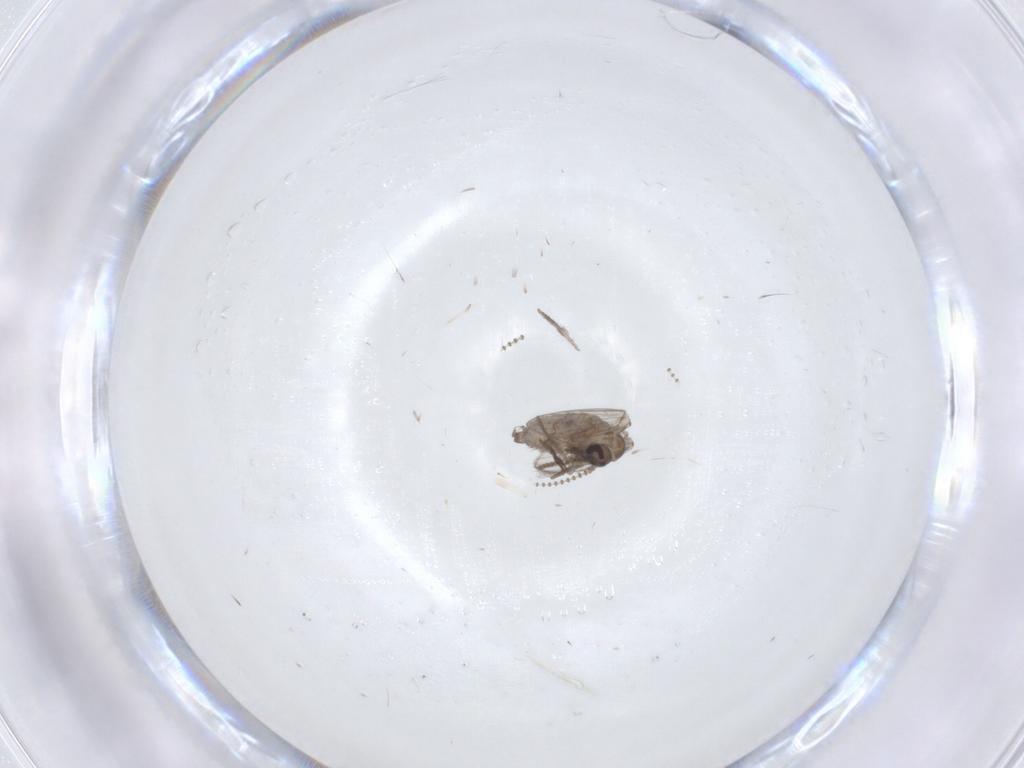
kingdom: Animalia
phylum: Arthropoda
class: Insecta
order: Diptera
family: Psychodidae
